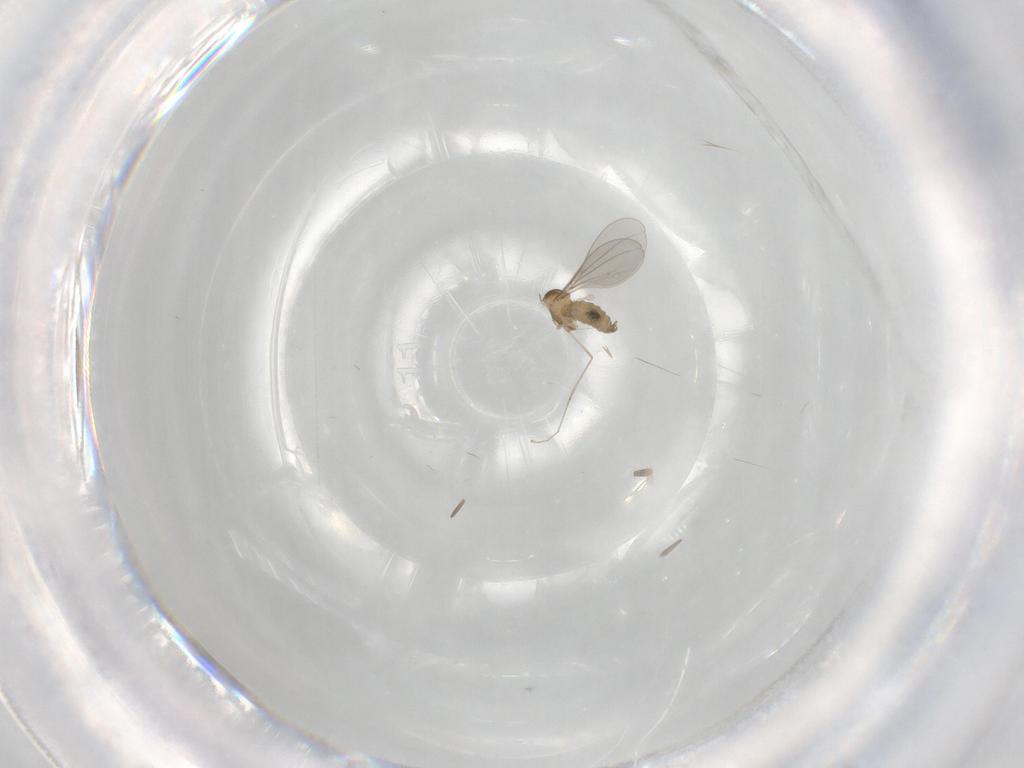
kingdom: Animalia
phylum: Arthropoda
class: Insecta
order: Diptera
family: Cecidomyiidae
